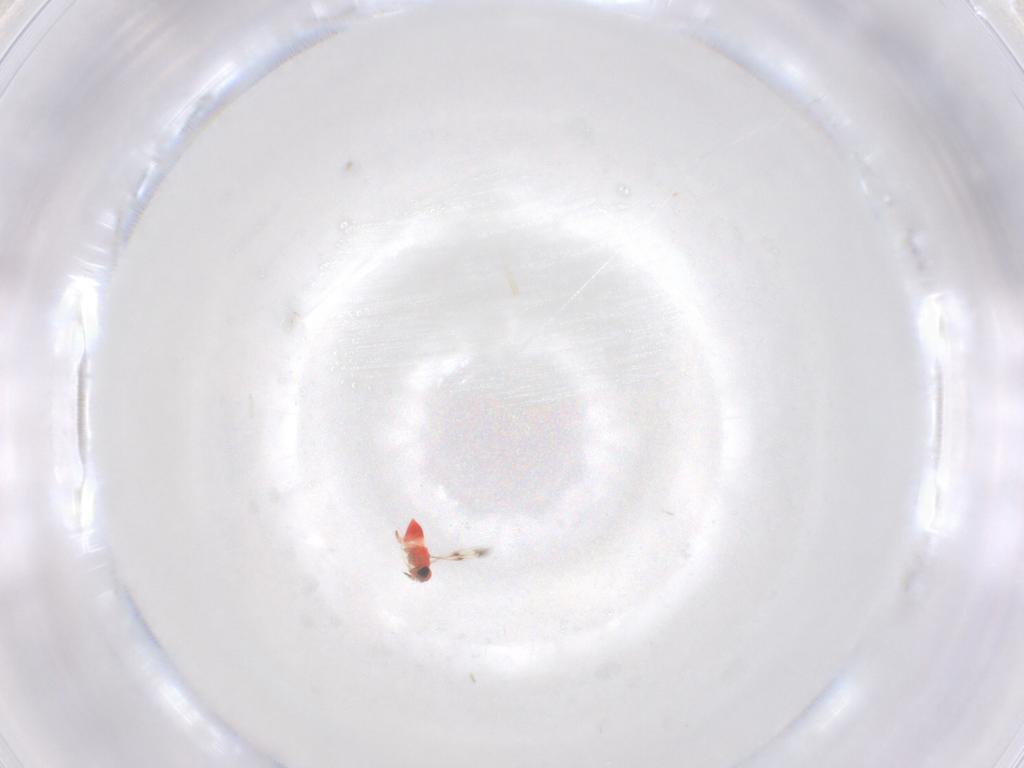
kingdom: Animalia
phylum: Arthropoda
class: Insecta
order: Hymenoptera
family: Trichogrammatidae
